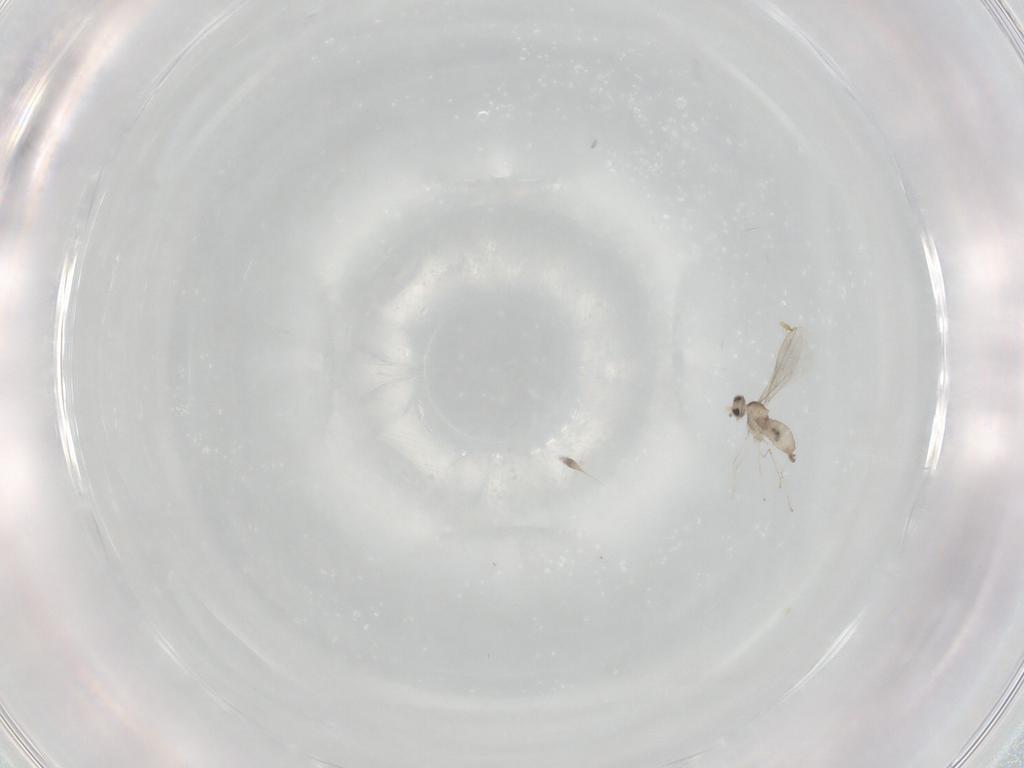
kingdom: Animalia
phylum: Arthropoda
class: Insecta
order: Diptera
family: Cecidomyiidae
